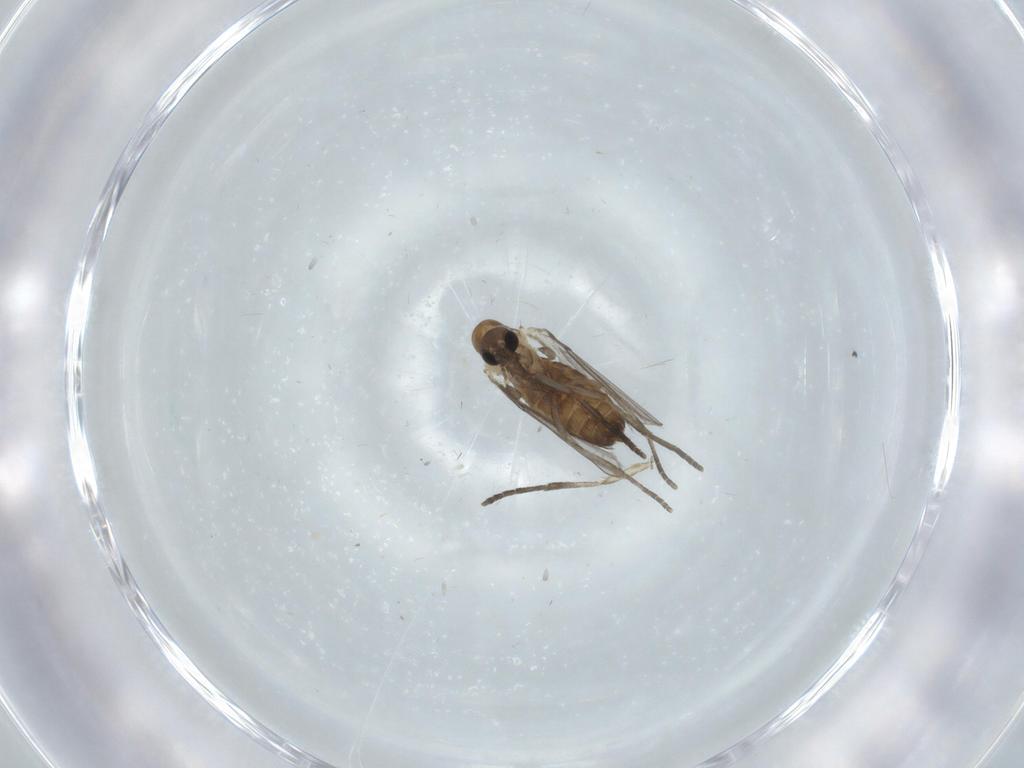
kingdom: Animalia
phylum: Arthropoda
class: Insecta
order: Diptera
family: Psychodidae
